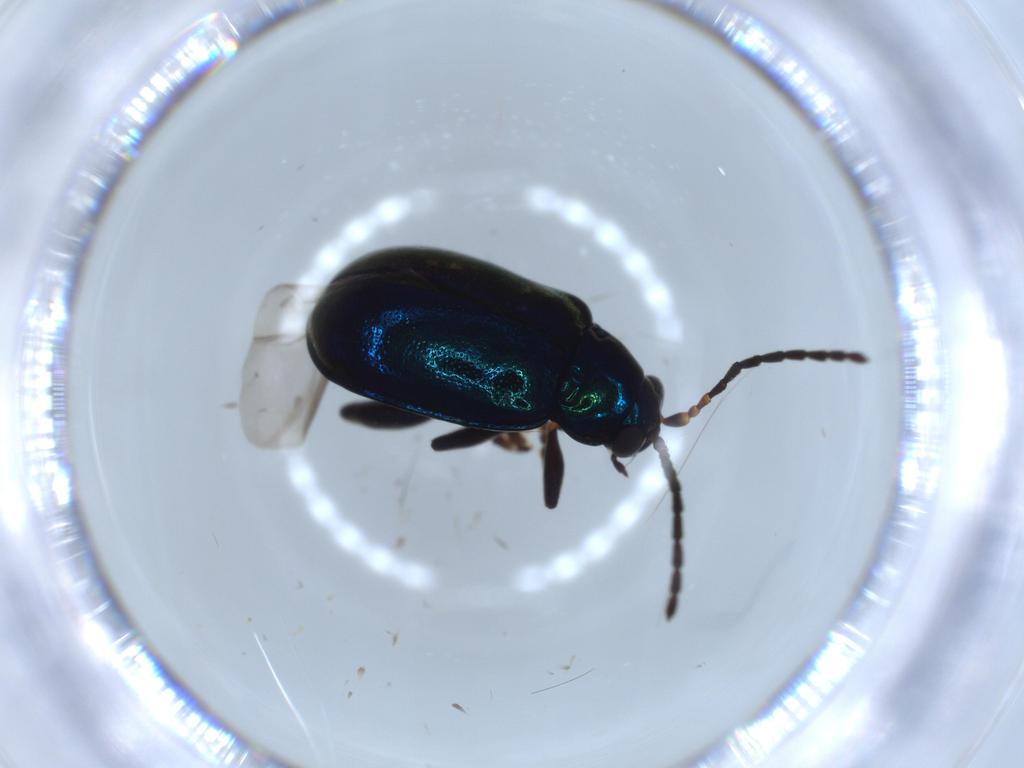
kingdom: Animalia
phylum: Arthropoda
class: Insecta
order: Coleoptera
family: Chrysomelidae
